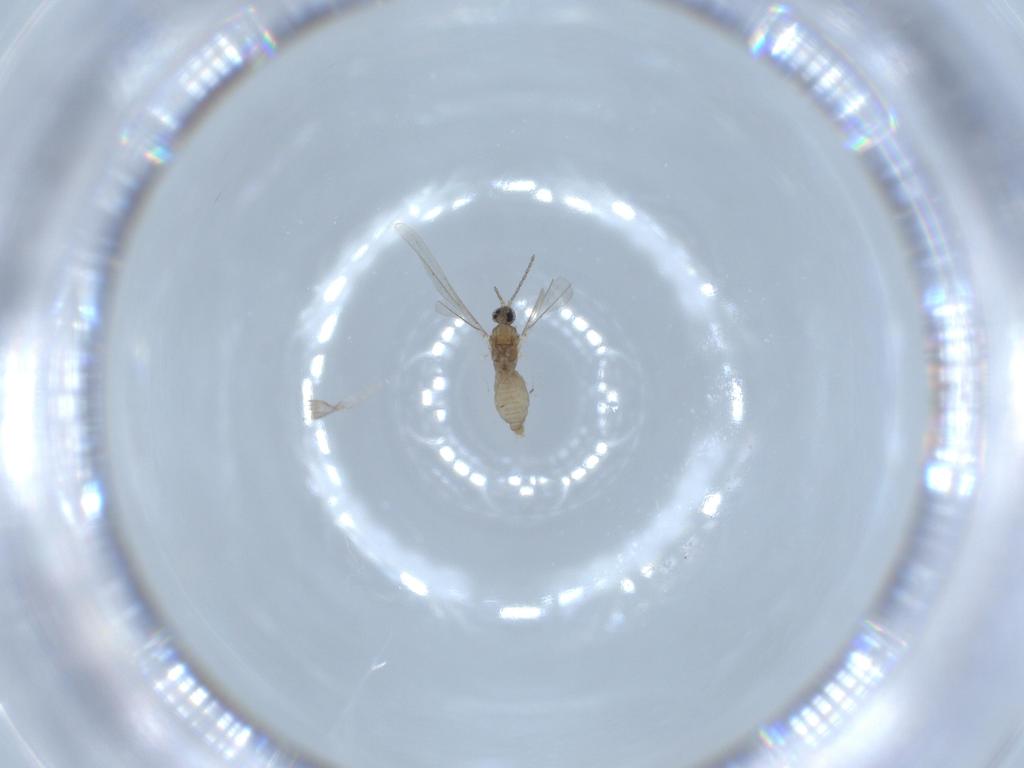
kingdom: Animalia
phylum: Arthropoda
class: Insecta
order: Diptera
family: Cecidomyiidae
